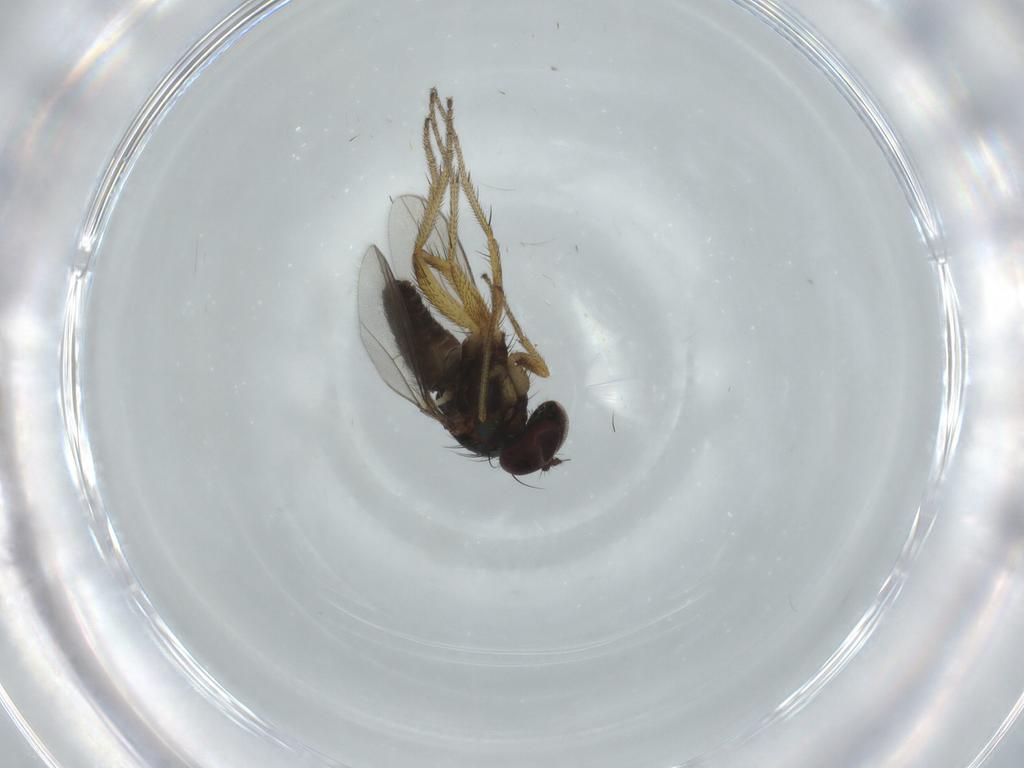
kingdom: Animalia
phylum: Arthropoda
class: Insecta
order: Diptera
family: Dolichopodidae
